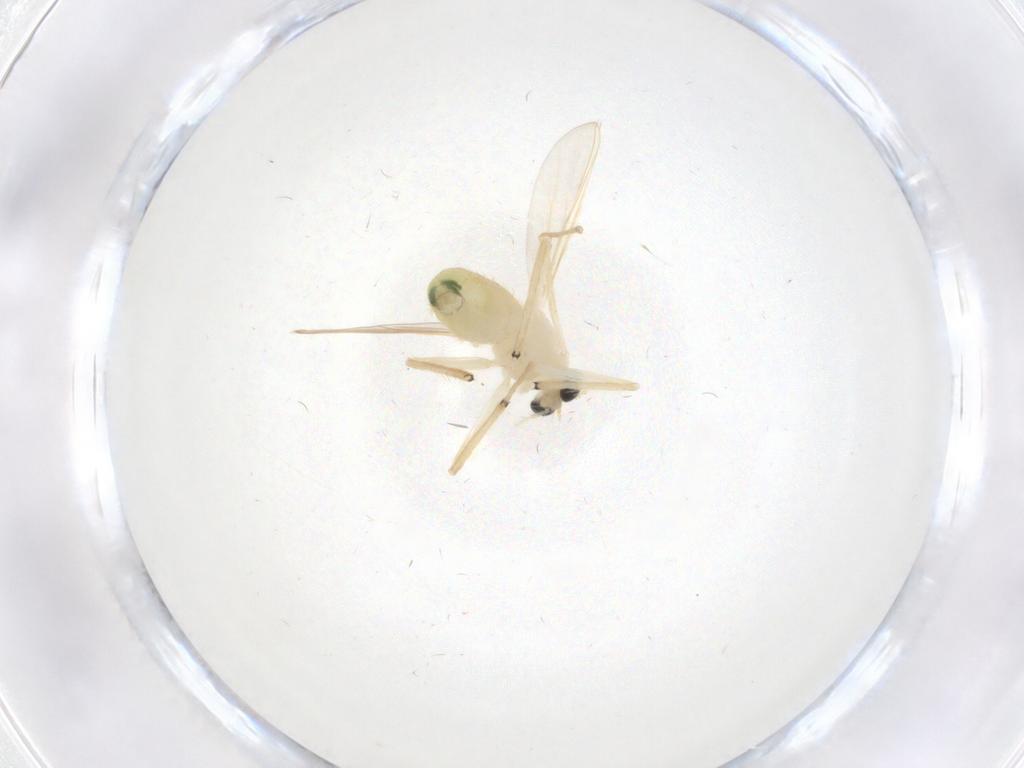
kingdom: Animalia
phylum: Arthropoda
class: Insecta
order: Diptera
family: Chironomidae
